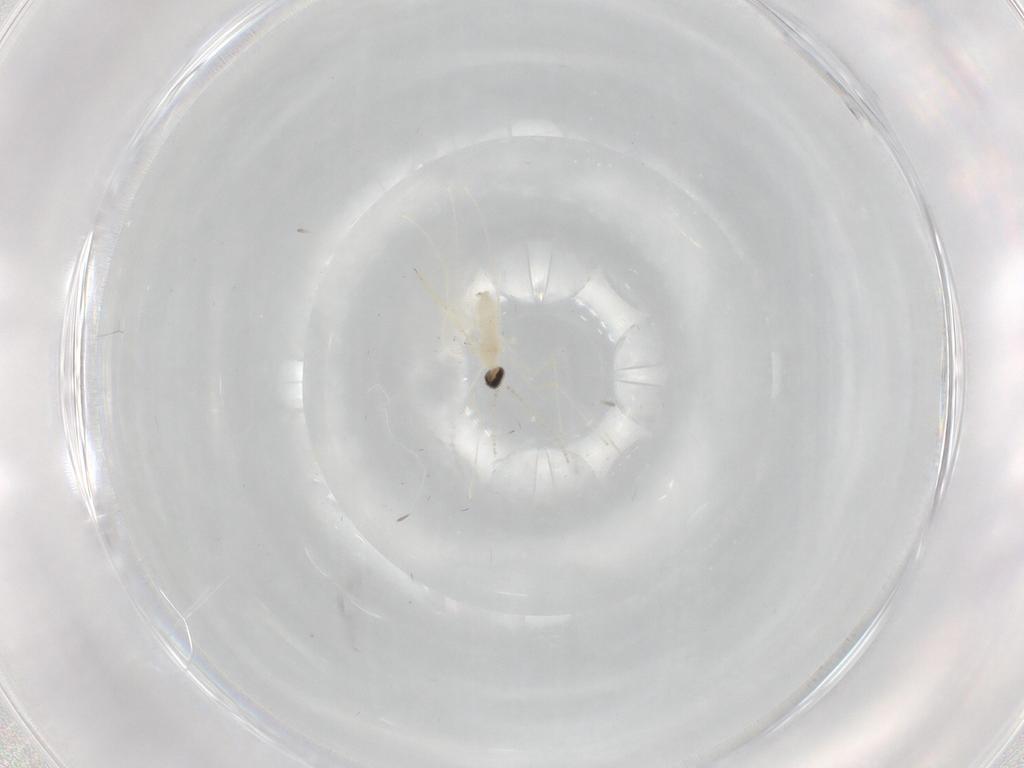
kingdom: Animalia
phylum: Arthropoda
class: Insecta
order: Diptera
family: Cecidomyiidae
